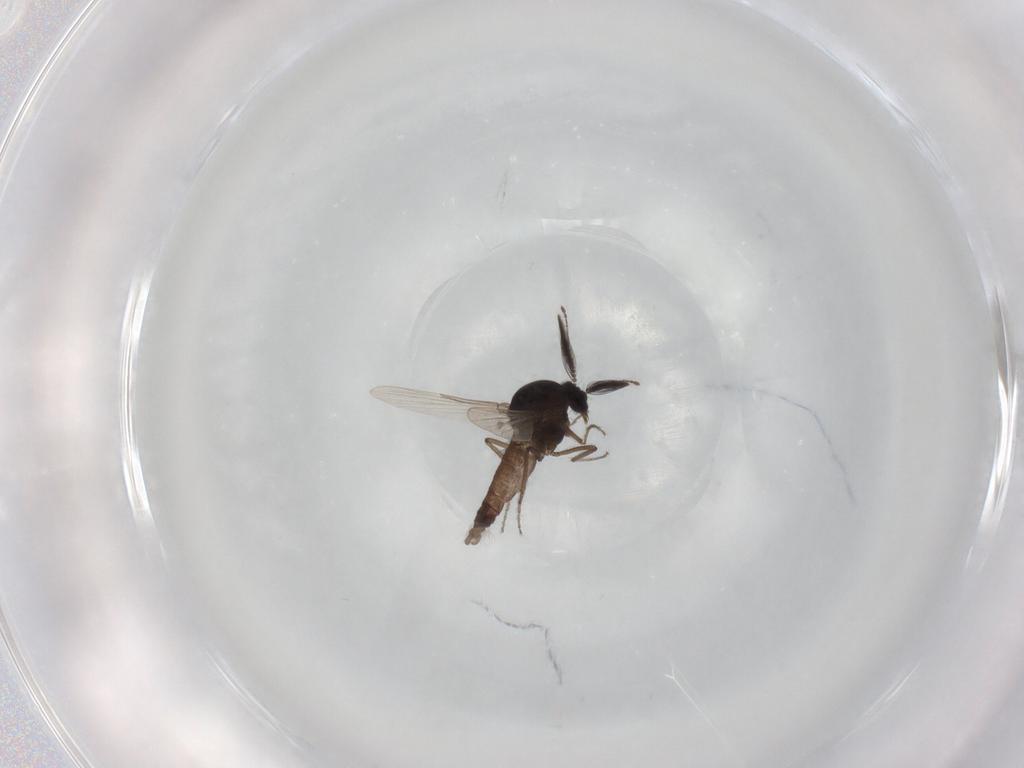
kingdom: Animalia
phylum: Arthropoda
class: Insecta
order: Diptera
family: Ceratopogonidae
